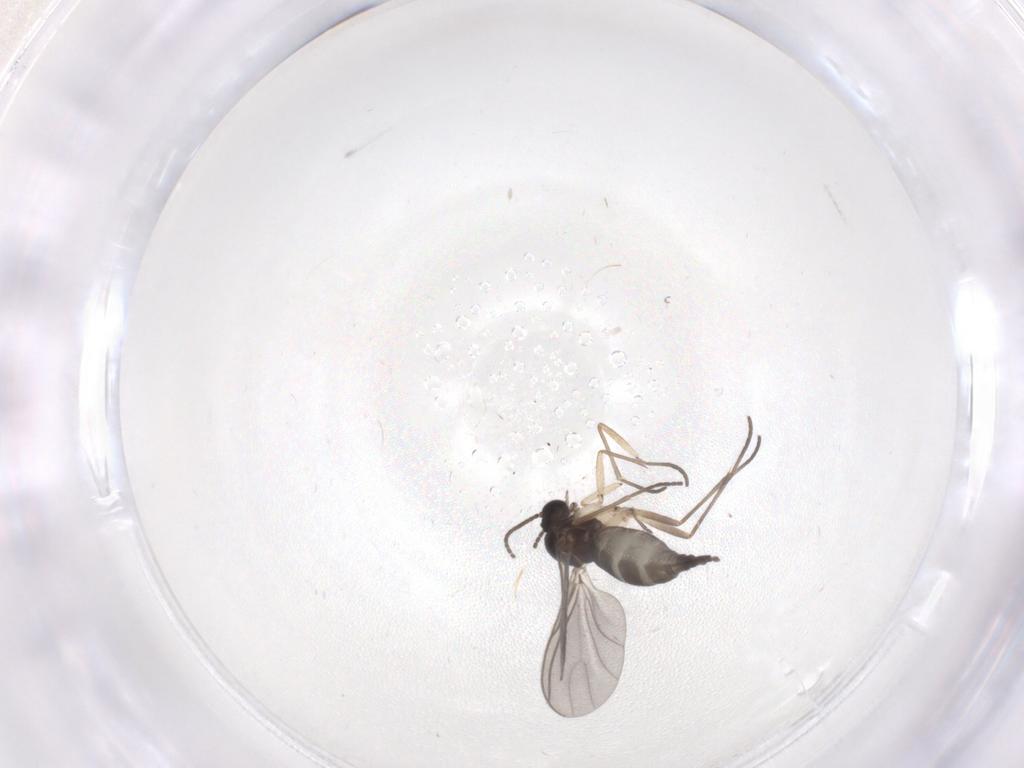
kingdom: Animalia
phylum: Arthropoda
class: Insecta
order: Diptera
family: Sciaridae
